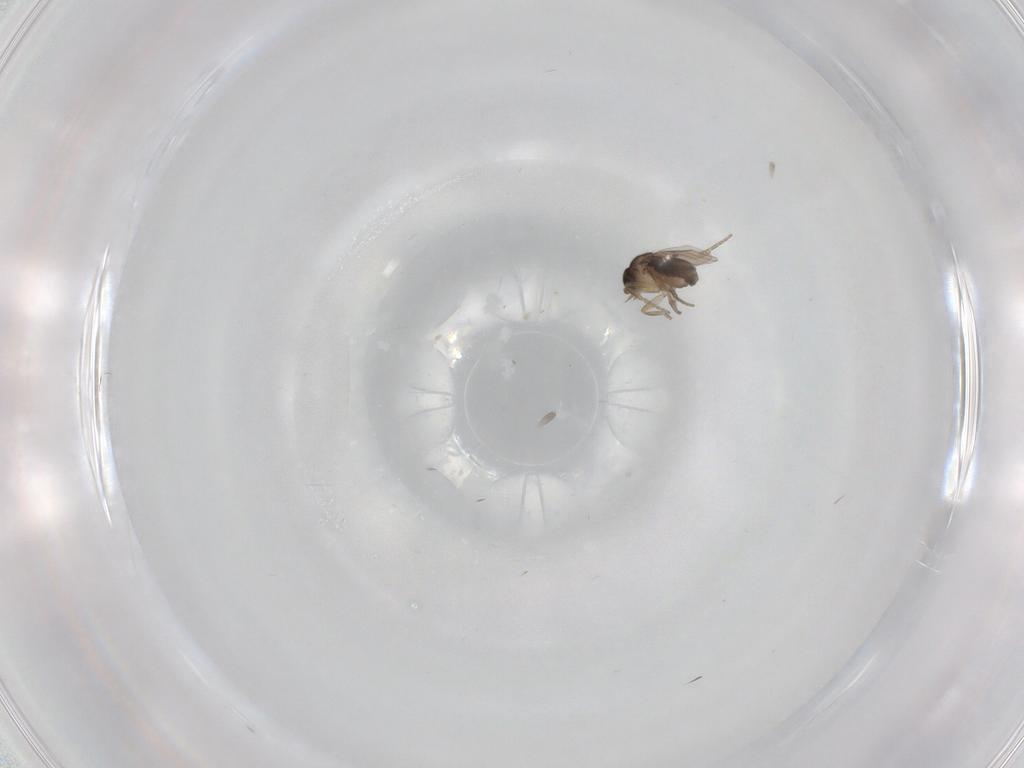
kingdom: Animalia
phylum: Arthropoda
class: Insecta
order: Diptera
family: Phoridae
